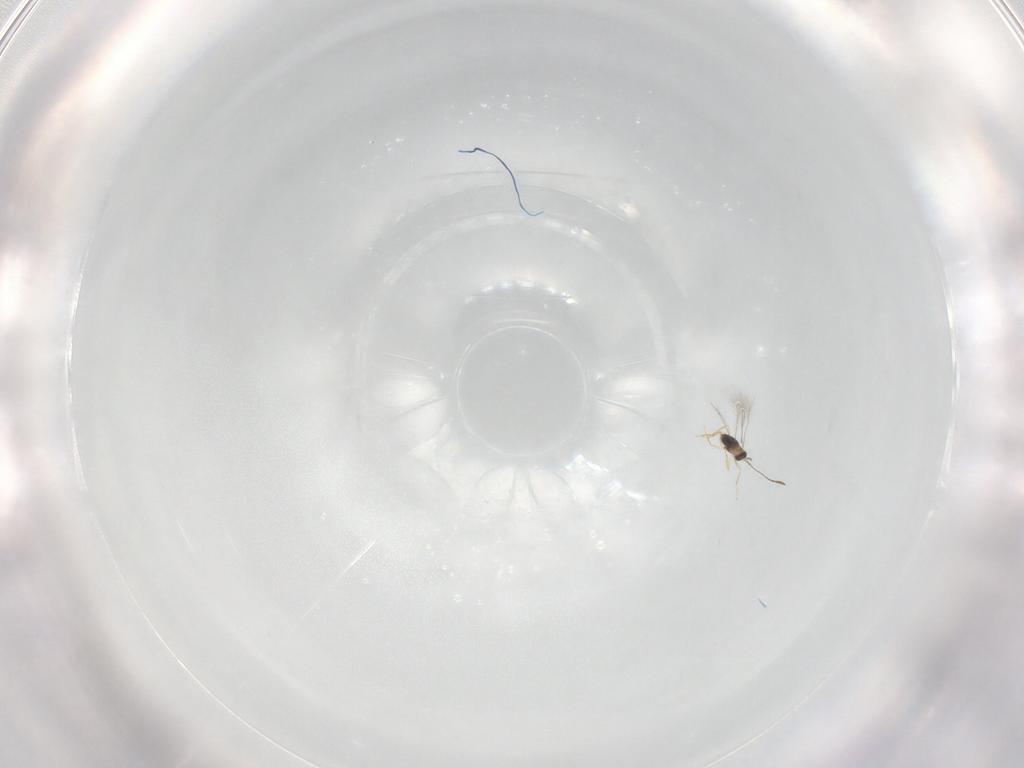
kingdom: Animalia
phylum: Arthropoda
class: Insecta
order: Hymenoptera
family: Mymaridae
